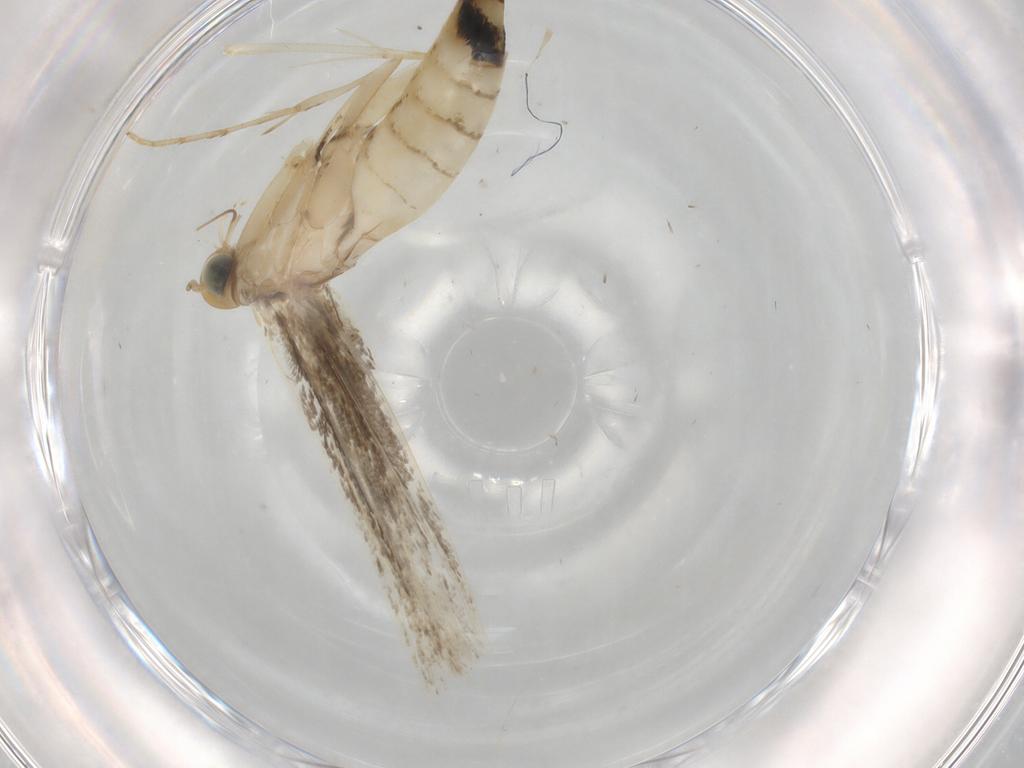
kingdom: Animalia
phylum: Arthropoda
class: Insecta
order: Lepidoptera
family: Gracillariidae
